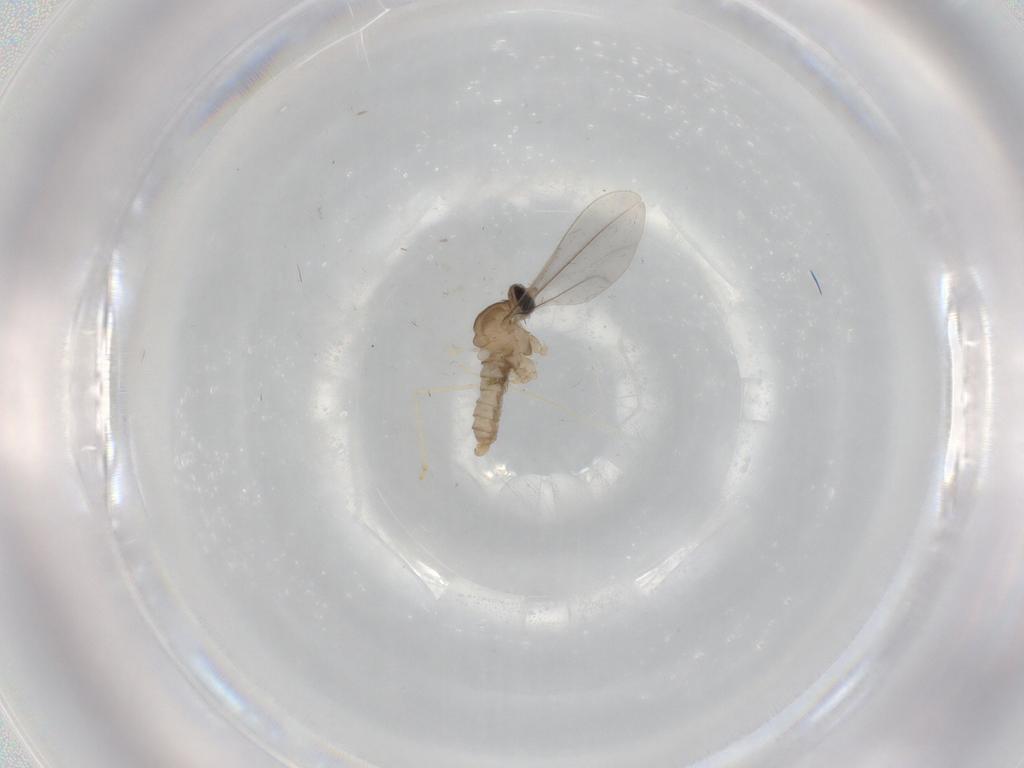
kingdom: Animalia
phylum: Arthropoda
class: Insecta
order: Diptera
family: Cecidomyiidae
